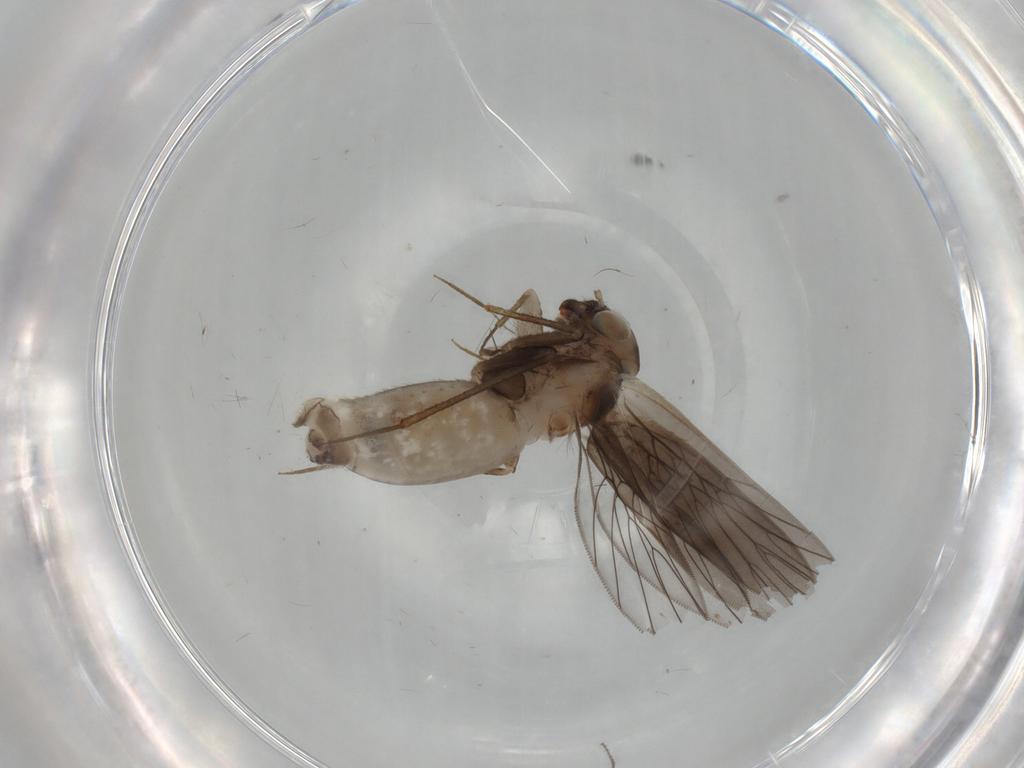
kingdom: Animalia
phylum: Arthropoda
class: Insecta
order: Psocodea
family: Lepidopsocidae
